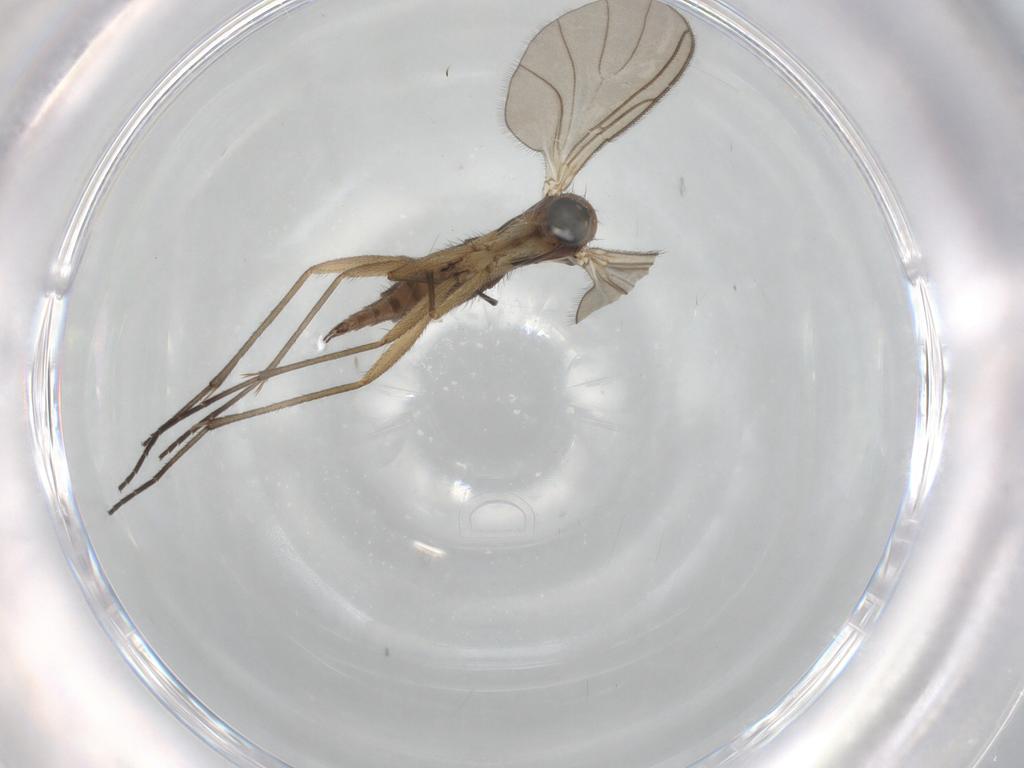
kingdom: Animalia
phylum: Arthropoda
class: Insecta
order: Diptera
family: Sciaridae
